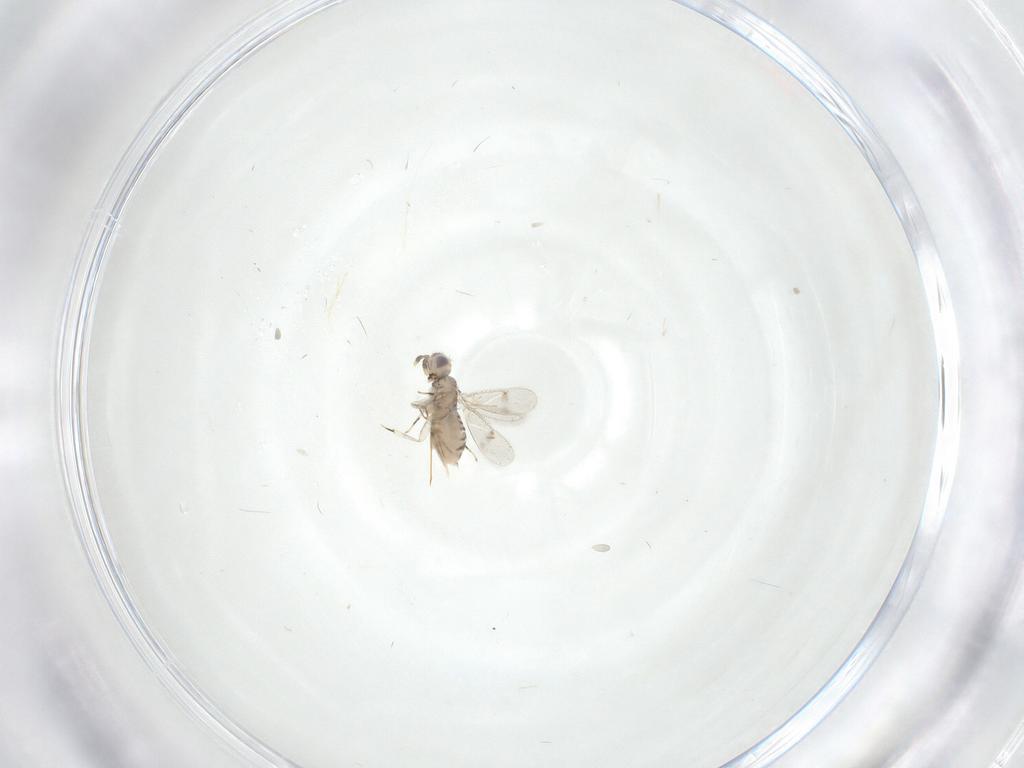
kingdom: Animalia
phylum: Arthropoda
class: Insecta
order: Hymenoptera
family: Aphelinidae
